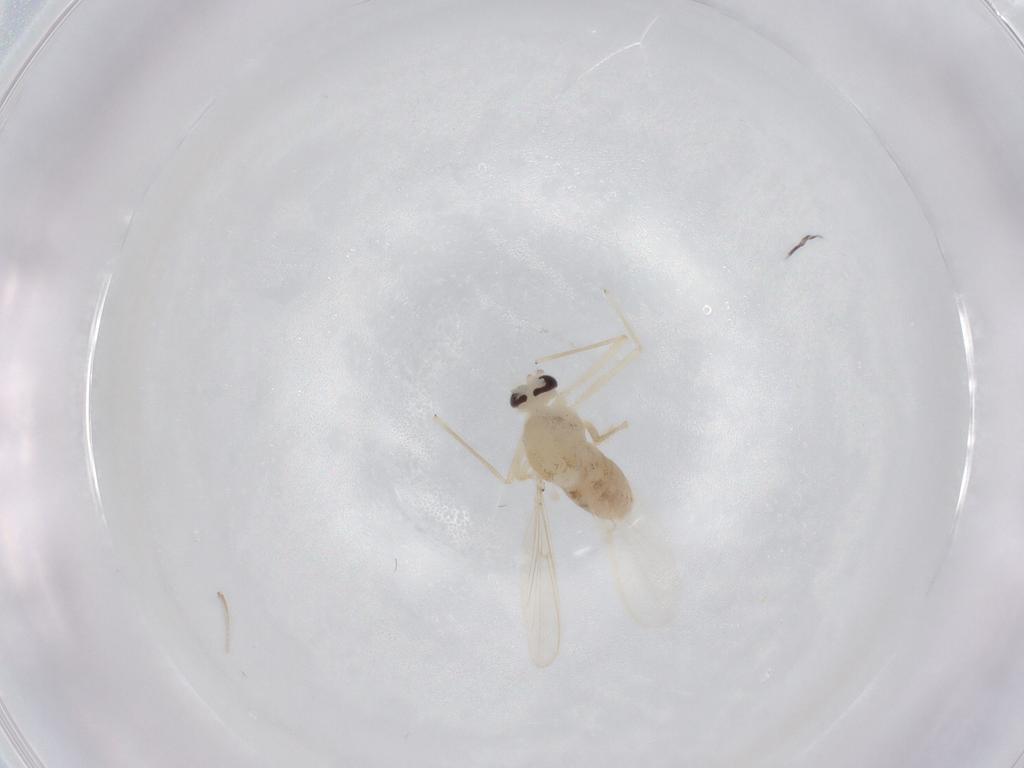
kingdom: Animalia
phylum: Arthropoda
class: Insecta
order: Diptera
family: Chironomidae
